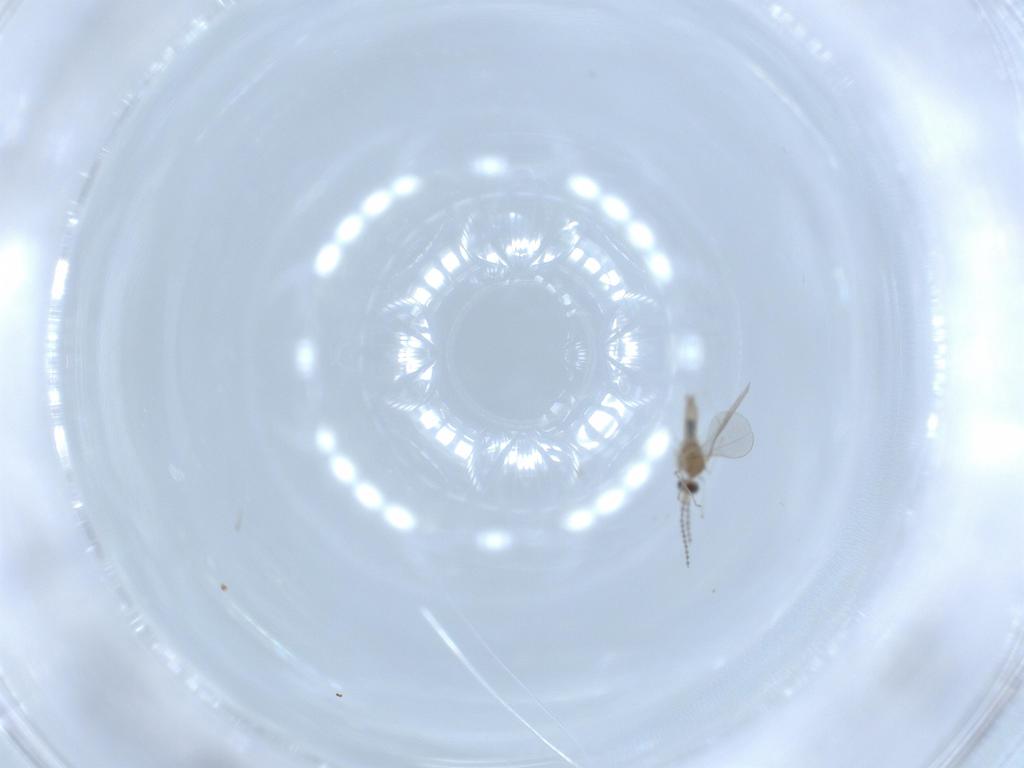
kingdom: Animalia
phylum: Arthropoda
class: Insecta
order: Diptera
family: Cecidomyiidae
